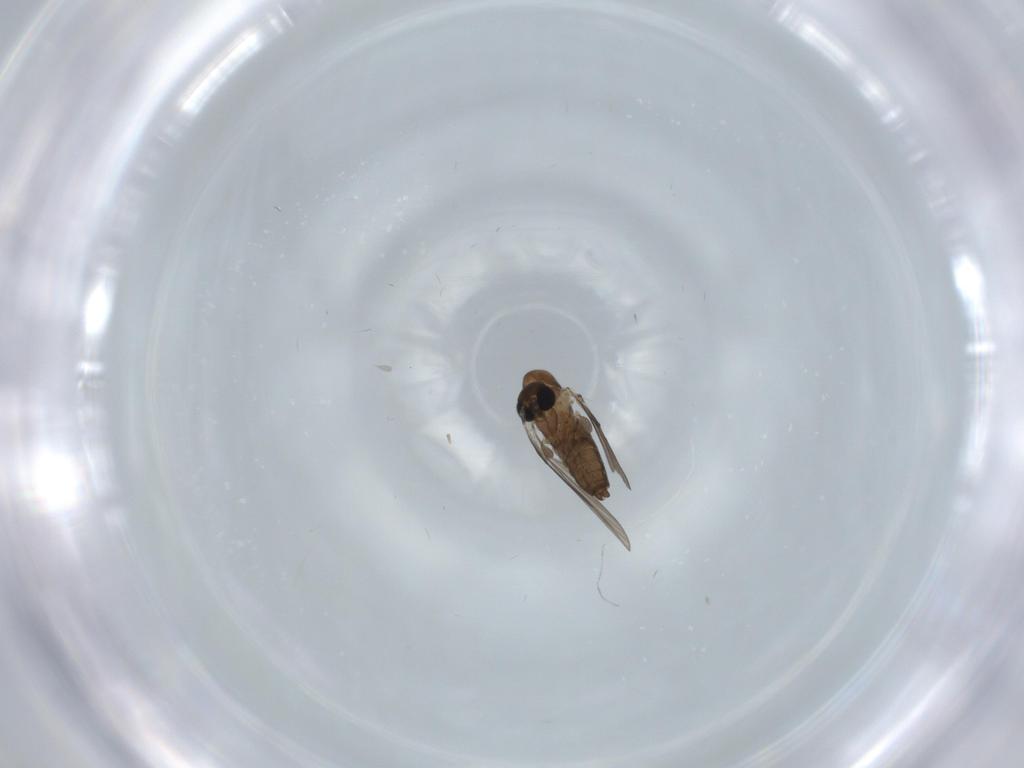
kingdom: Animalia
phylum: Arthropoda
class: Insecta
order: Diptera
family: Psychodidae
